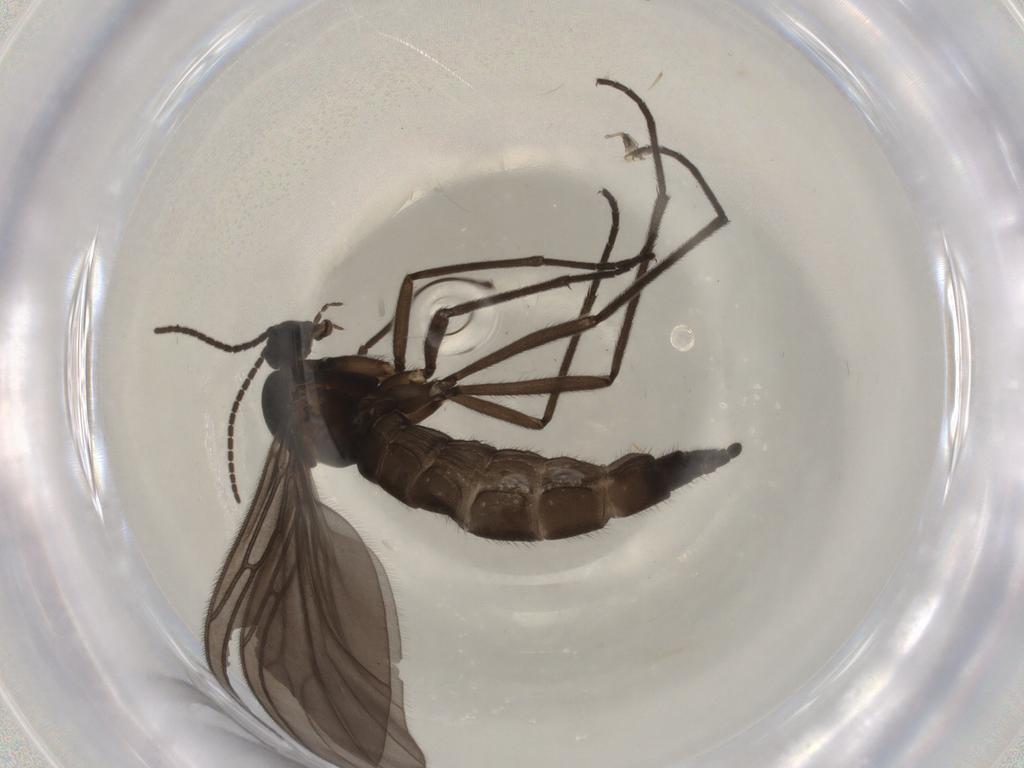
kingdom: Animalia
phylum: Arthropoda
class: Insecta
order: Diptera
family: Sciaridae
